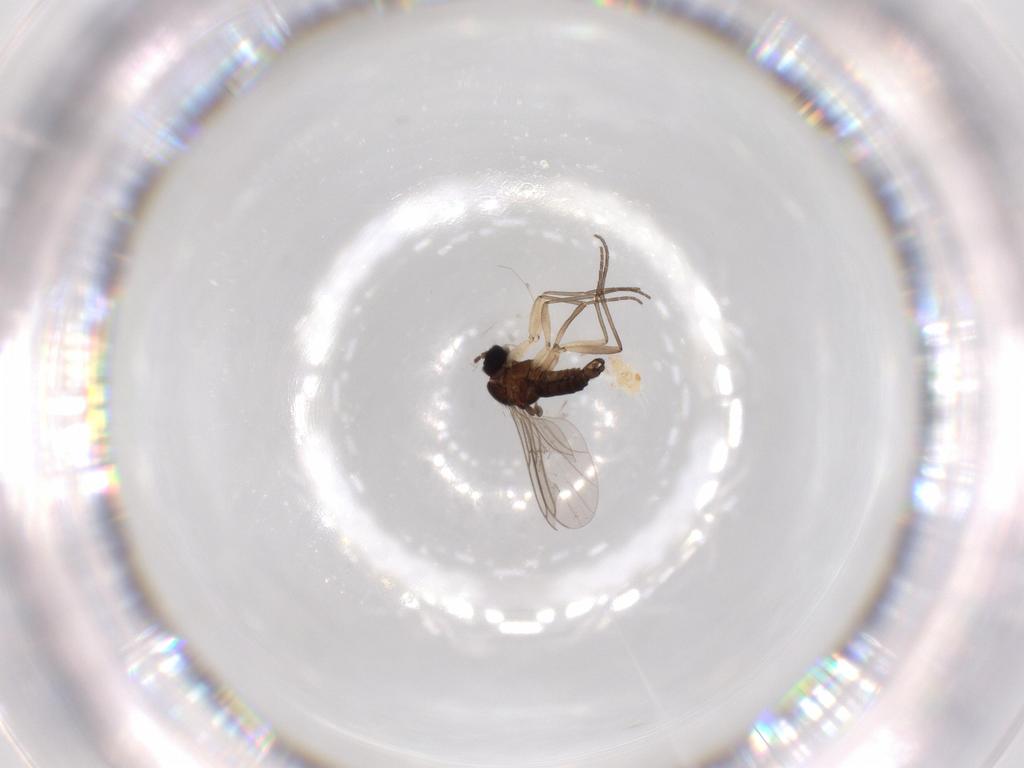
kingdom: Animalia
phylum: Arthropoda
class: Insecta
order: Diptera
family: Sciaridae
